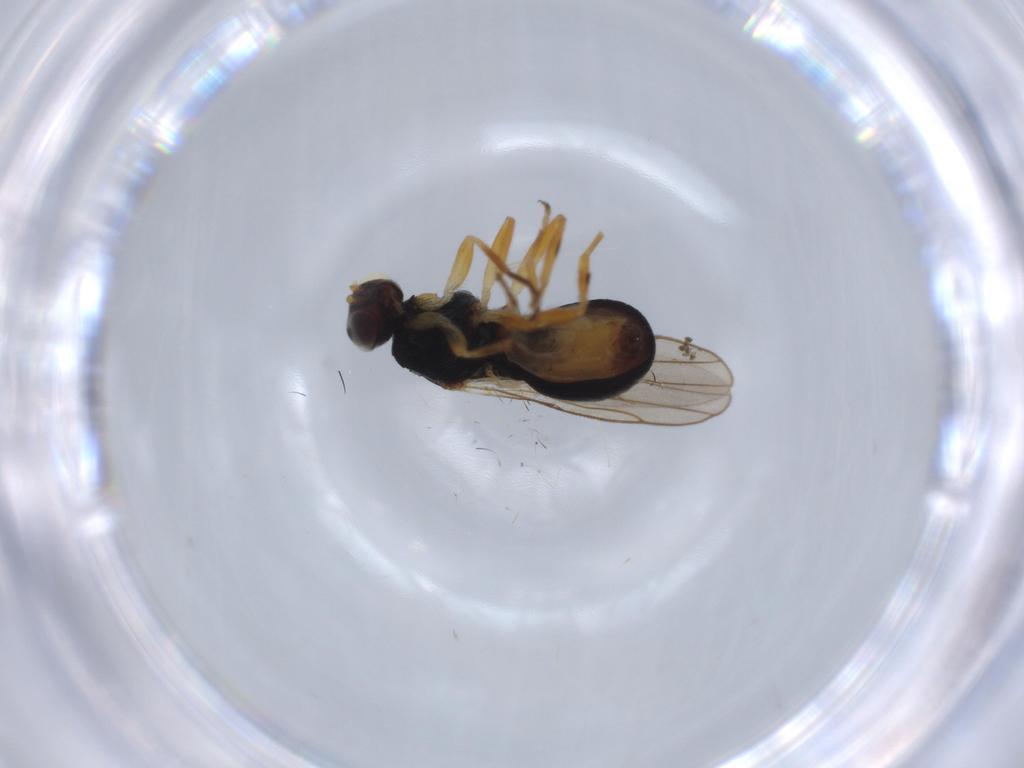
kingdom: Animalia
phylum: Arthropoda
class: Insecta
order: Diptera
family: Chloropidae
